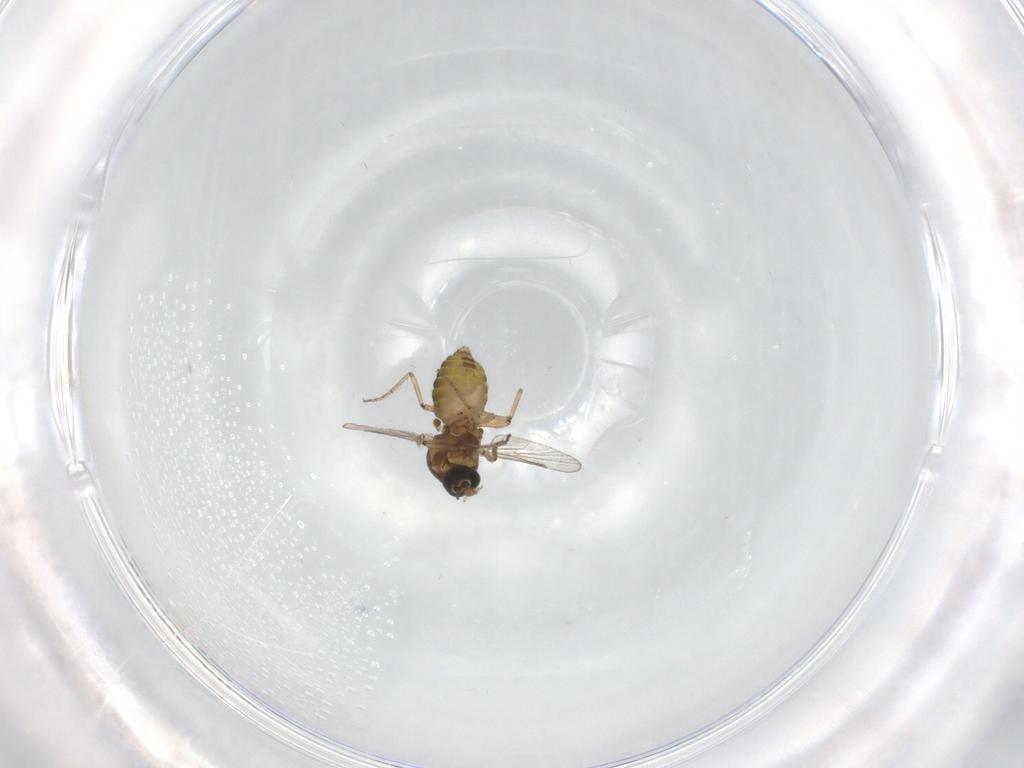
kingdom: Animalia
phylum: Arthropoda
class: Insecta
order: Diptera
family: Ceratopogonidae
